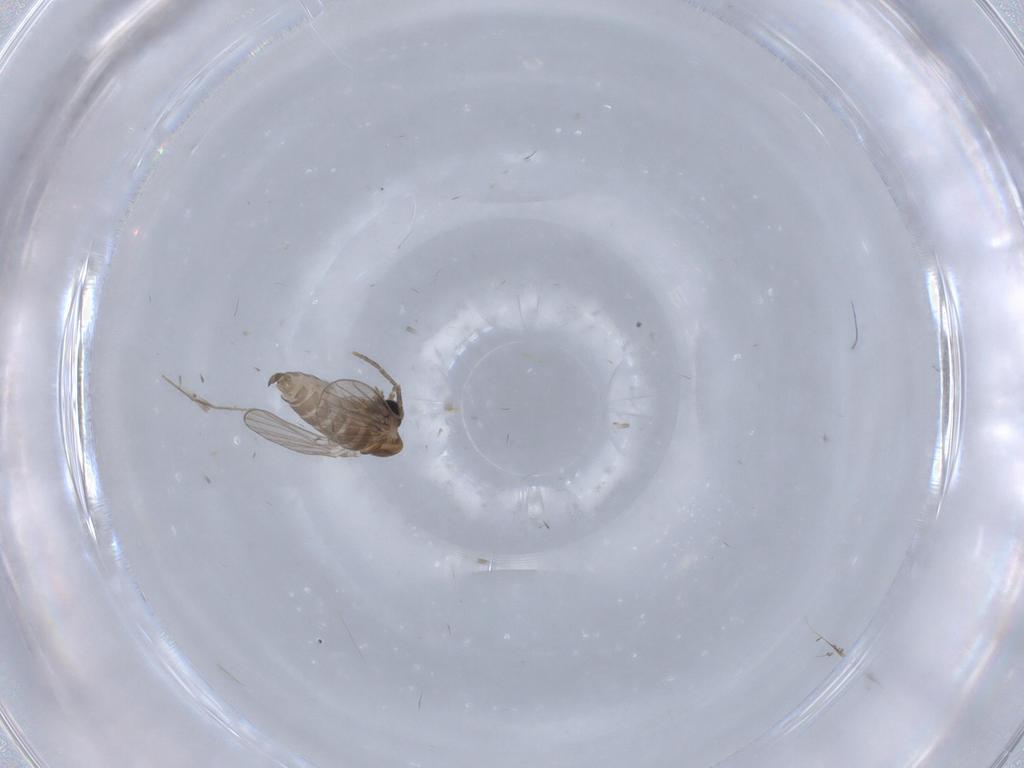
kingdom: Animalia
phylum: Arthropoda
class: Insecta
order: Diptera
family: Psychodidae
